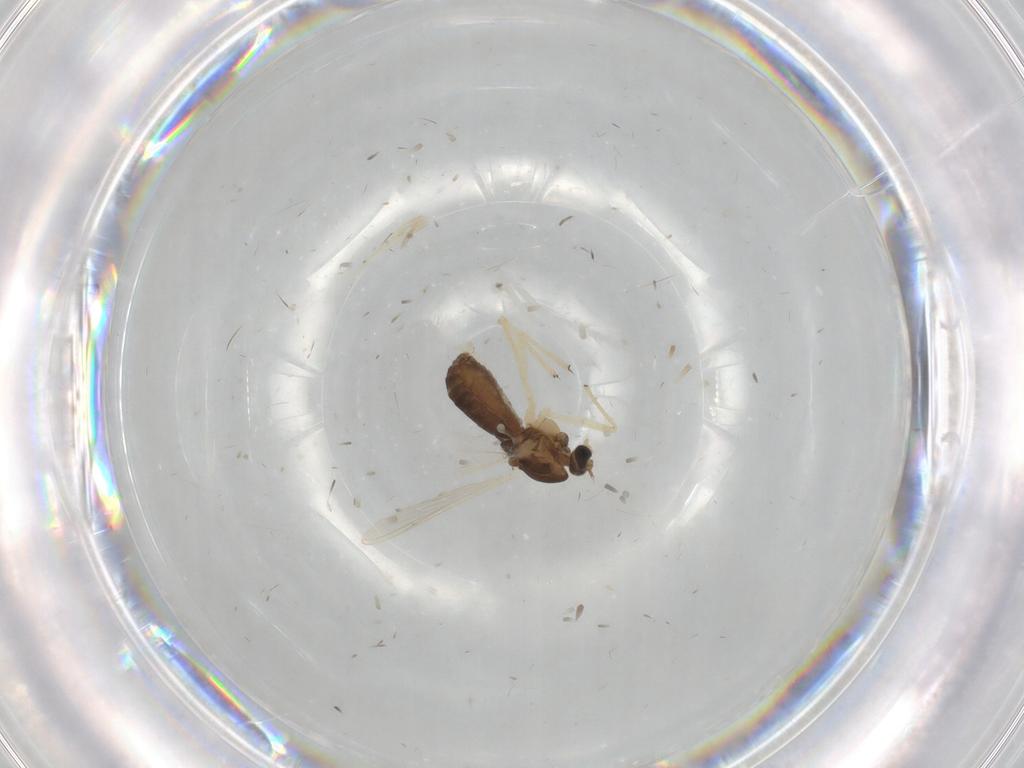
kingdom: Animalia
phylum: Arthropoda
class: Insecta
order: Diptera
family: Chironomidae
